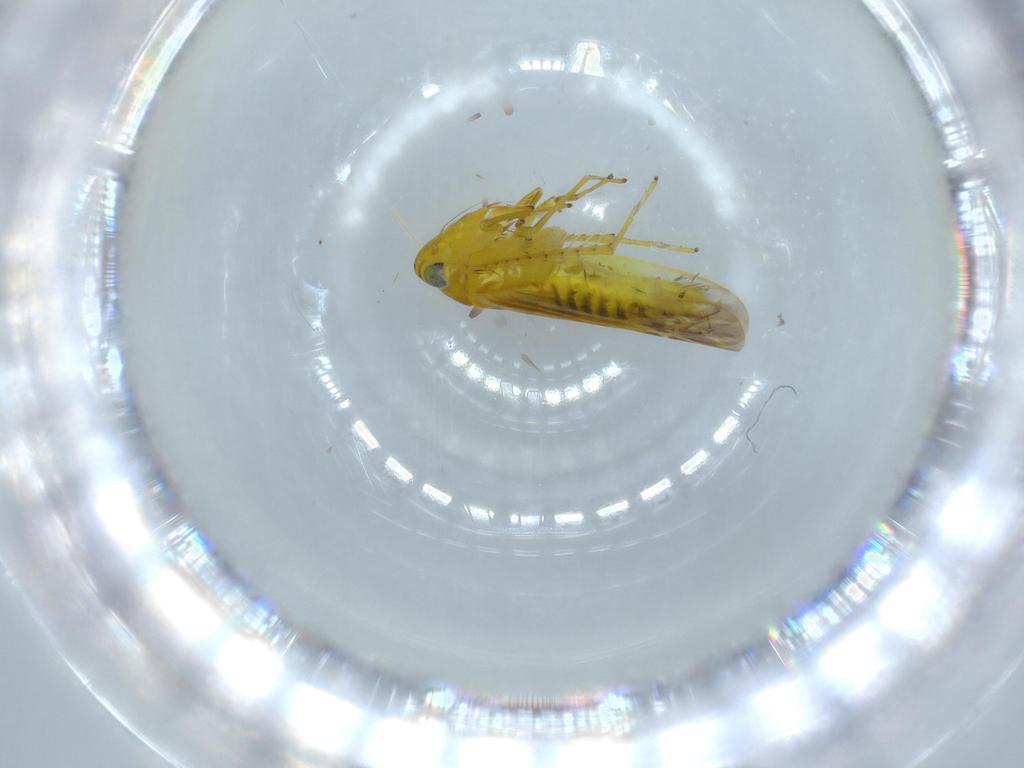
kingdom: Animalia
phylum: Arthropoda
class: Insecta
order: Hemiptera
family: Cicadellidae
